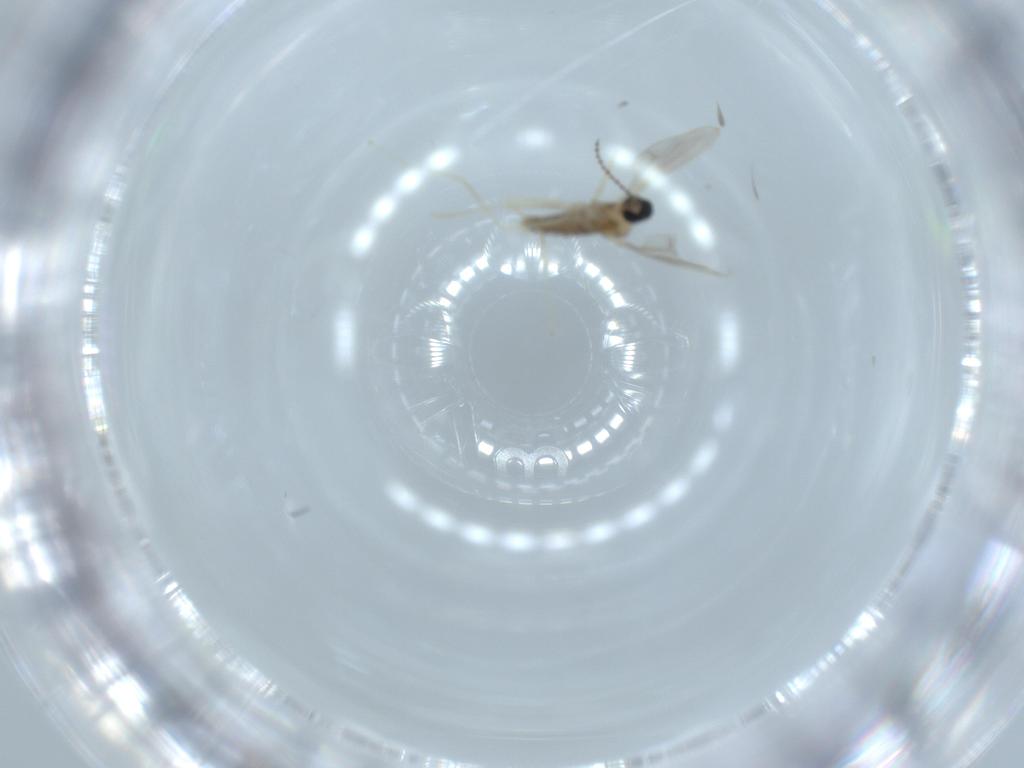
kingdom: Animalia
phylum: Arthropoda
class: Insecta
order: Diptera
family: Cecidomyiidae
